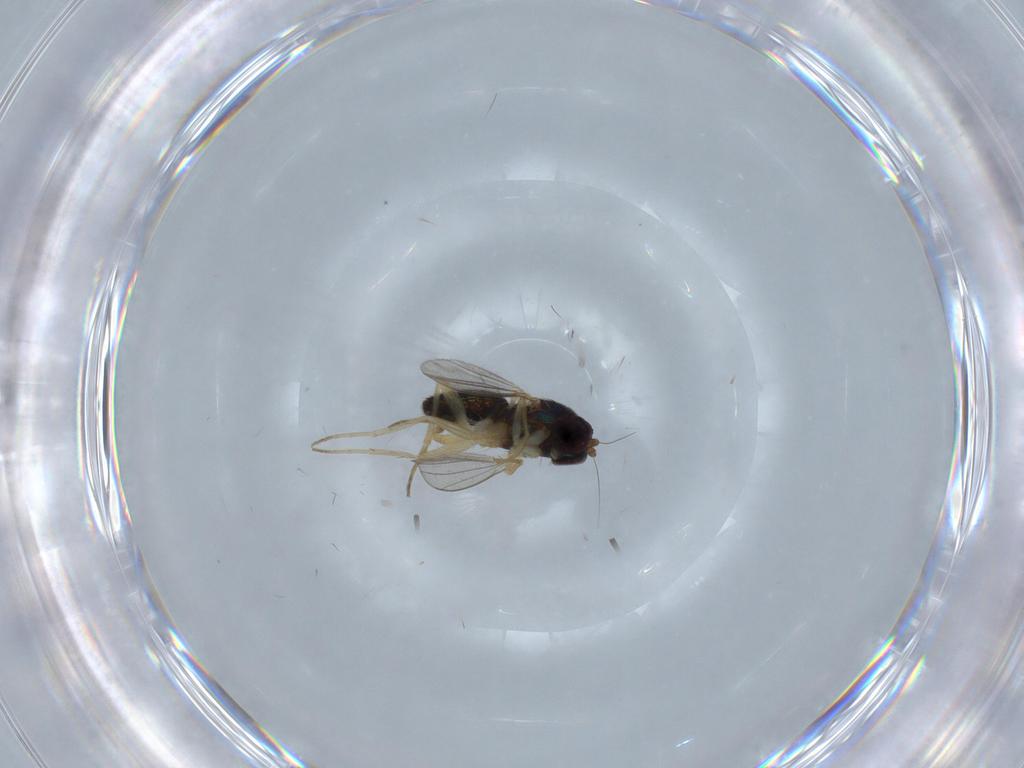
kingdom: Animalia
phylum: Arthropoda
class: Insecta
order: Diptera
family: Dolichopodidae
